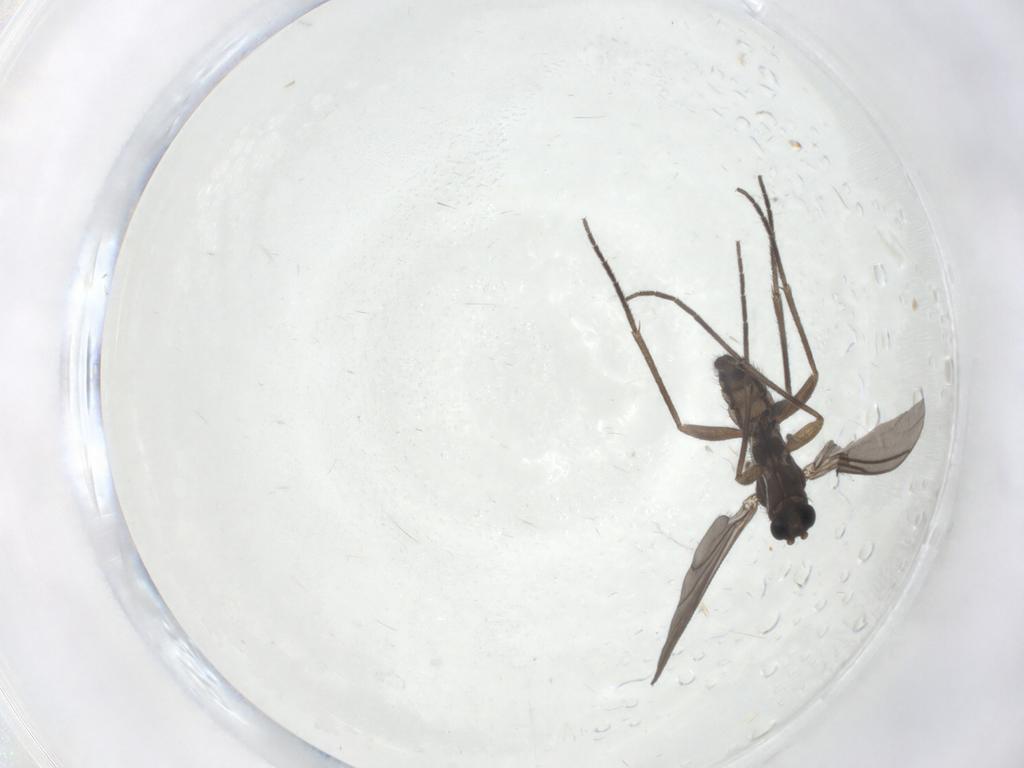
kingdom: Animalia
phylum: Arthropoda
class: Insecta
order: Diptera
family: Sciaridae
